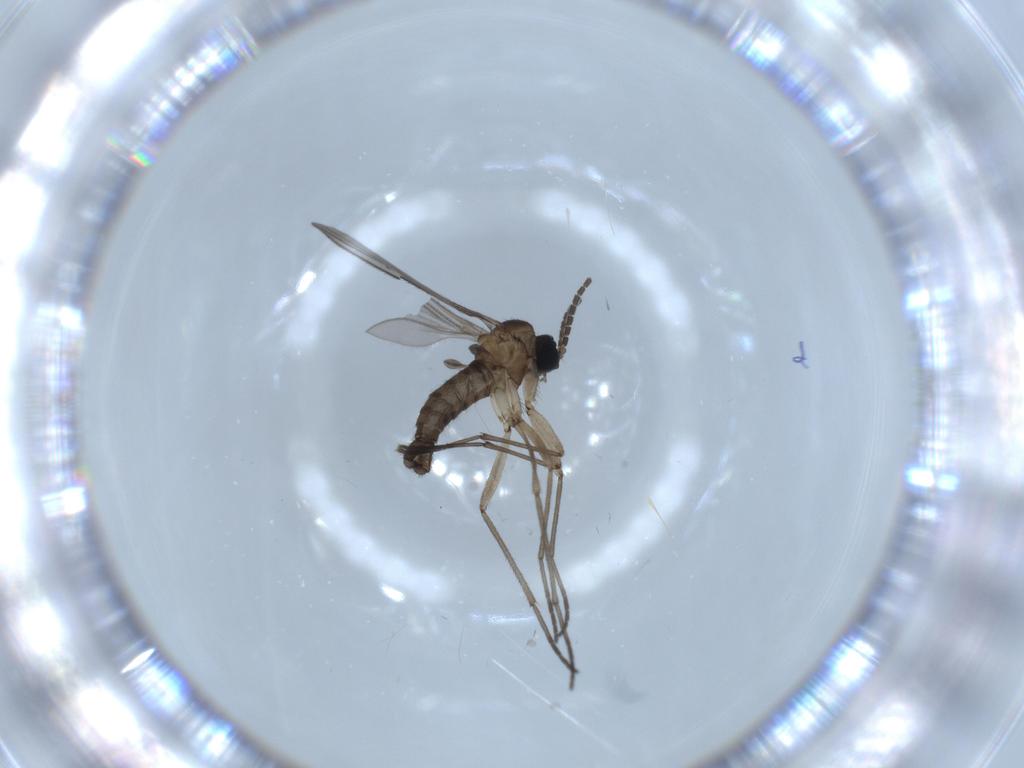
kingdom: Animalia
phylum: Arthropoda
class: Insecta
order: Diptera
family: Sciaridae
